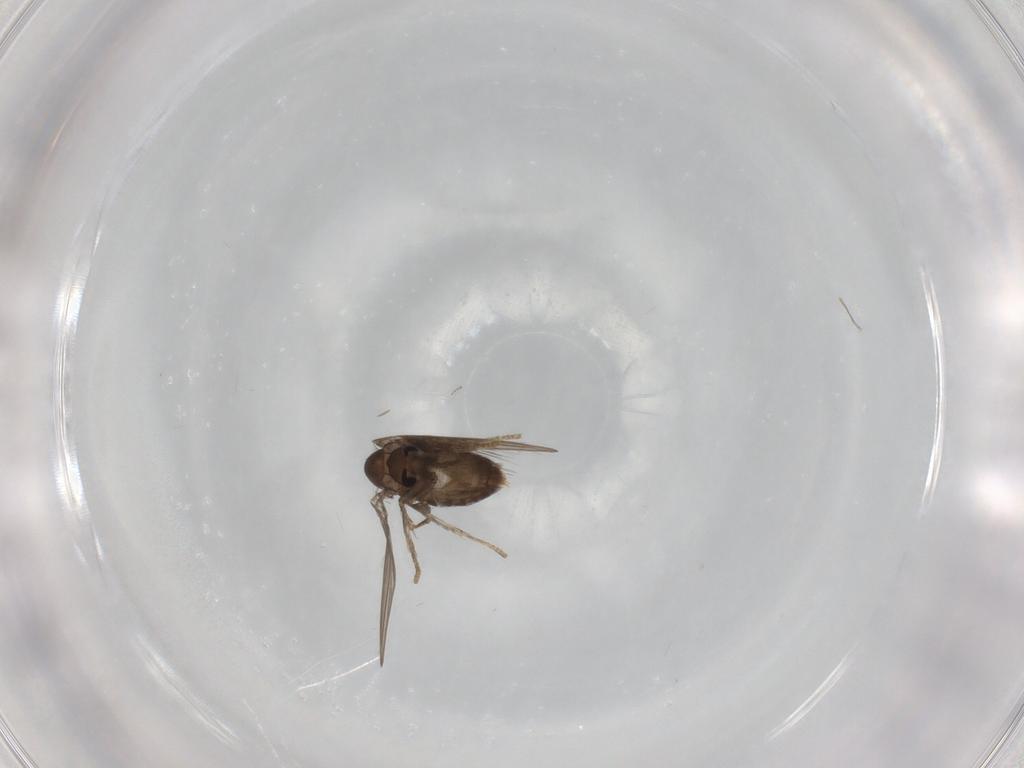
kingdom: Animalia
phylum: Arthropoda
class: Insecta
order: Diptera
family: Psychodidae
